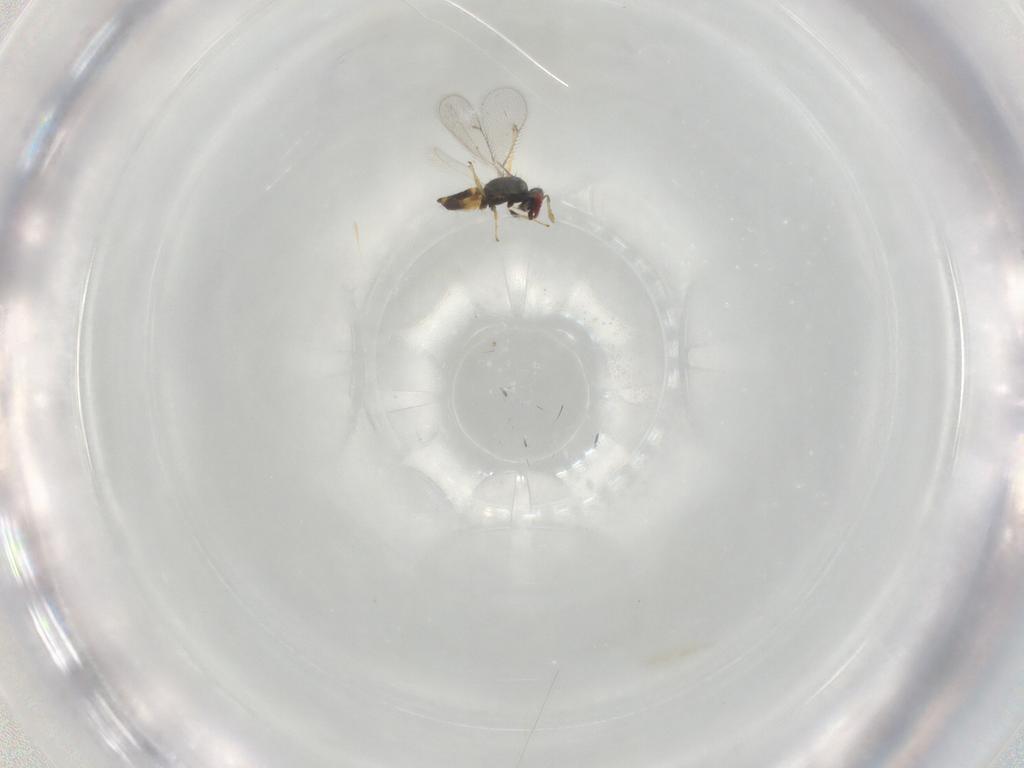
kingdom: Animalia
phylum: Arthropoda
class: Insecta
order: Hymenoptera
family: Eulophidae
